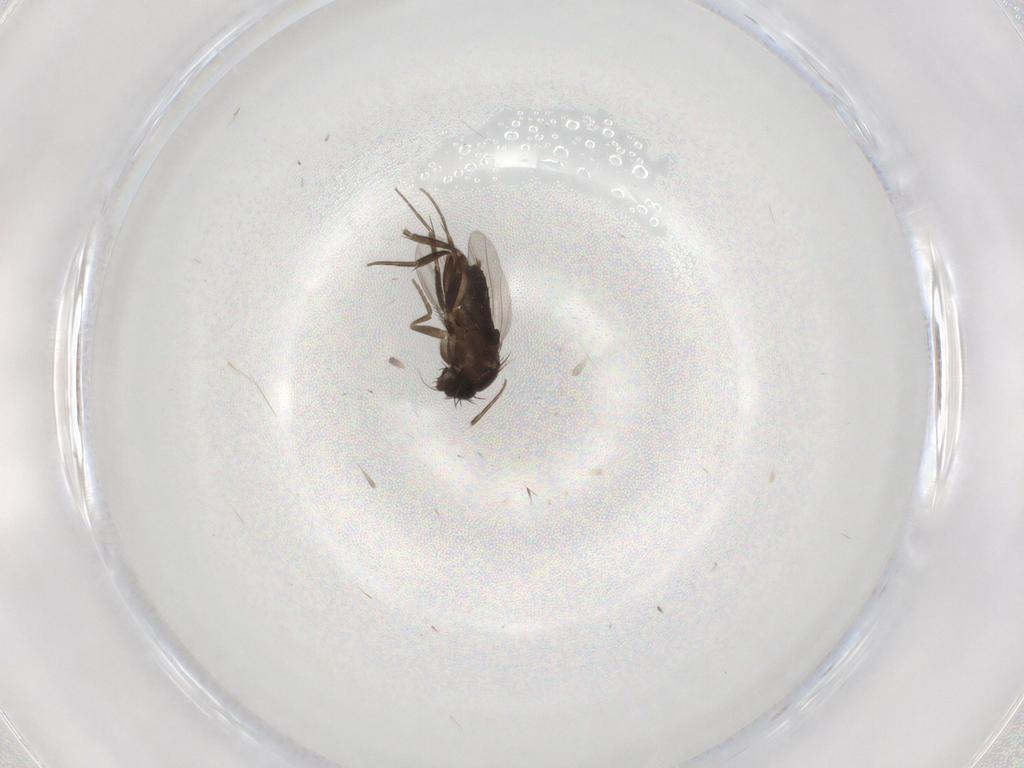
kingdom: Animalia
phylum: Arthropoda
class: Insecta
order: Diptera
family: Phoridae
